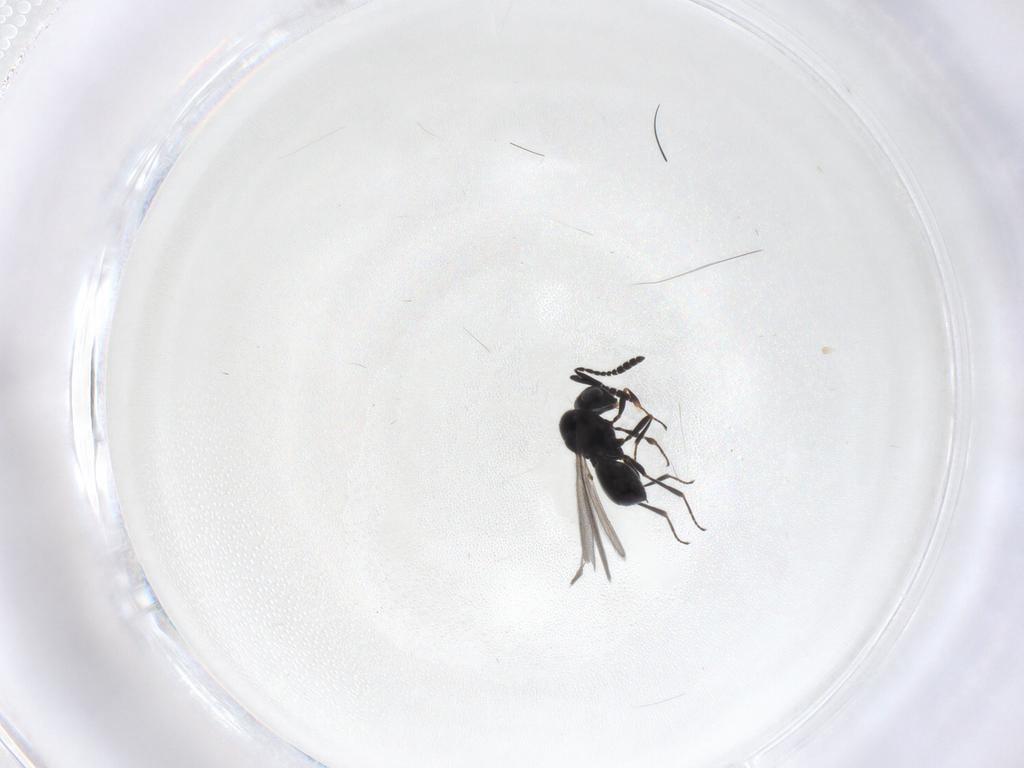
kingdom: Animalia
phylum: Arthropoda
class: Insecta
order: Hymenoptera
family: Scelionidae
